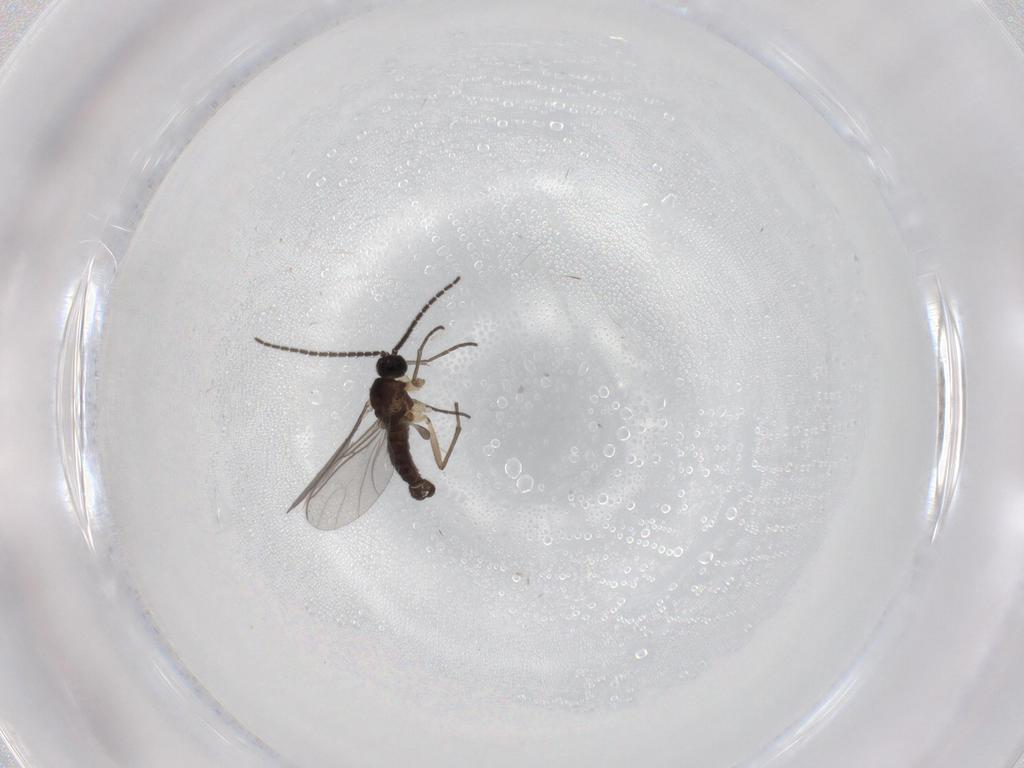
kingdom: Animalia
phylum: Arthropoda
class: Insecta
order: Diptera
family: Sciaridae
